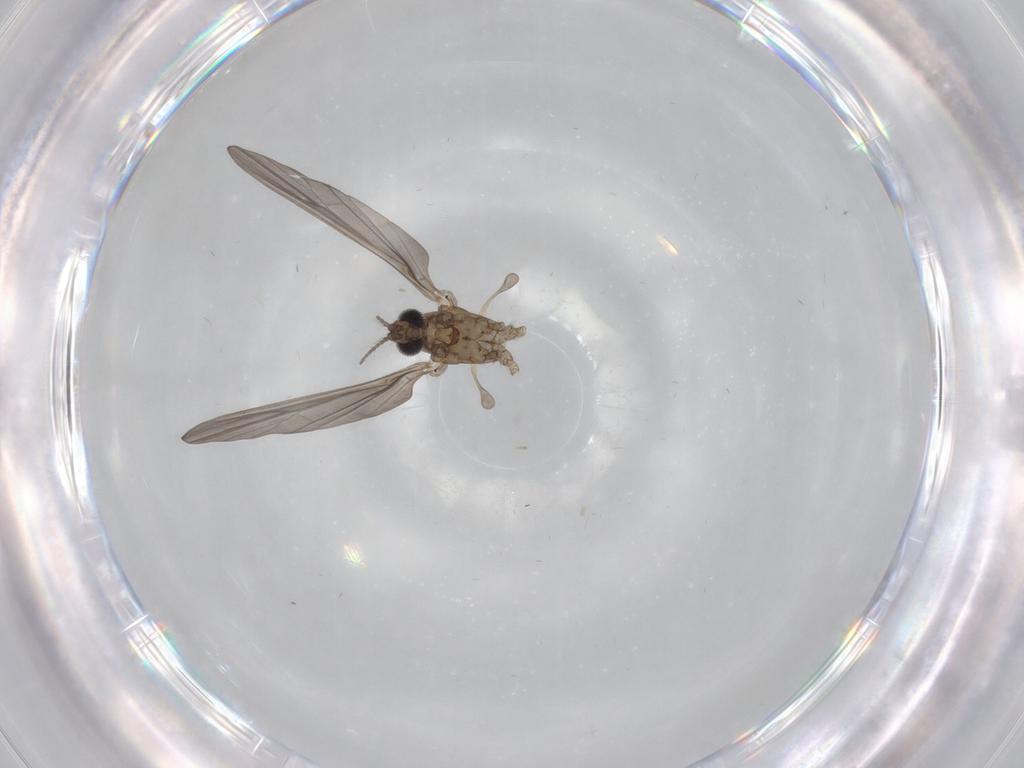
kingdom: Animalia
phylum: Arthropoda
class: Insecta
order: Diptera
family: Limoniidae
